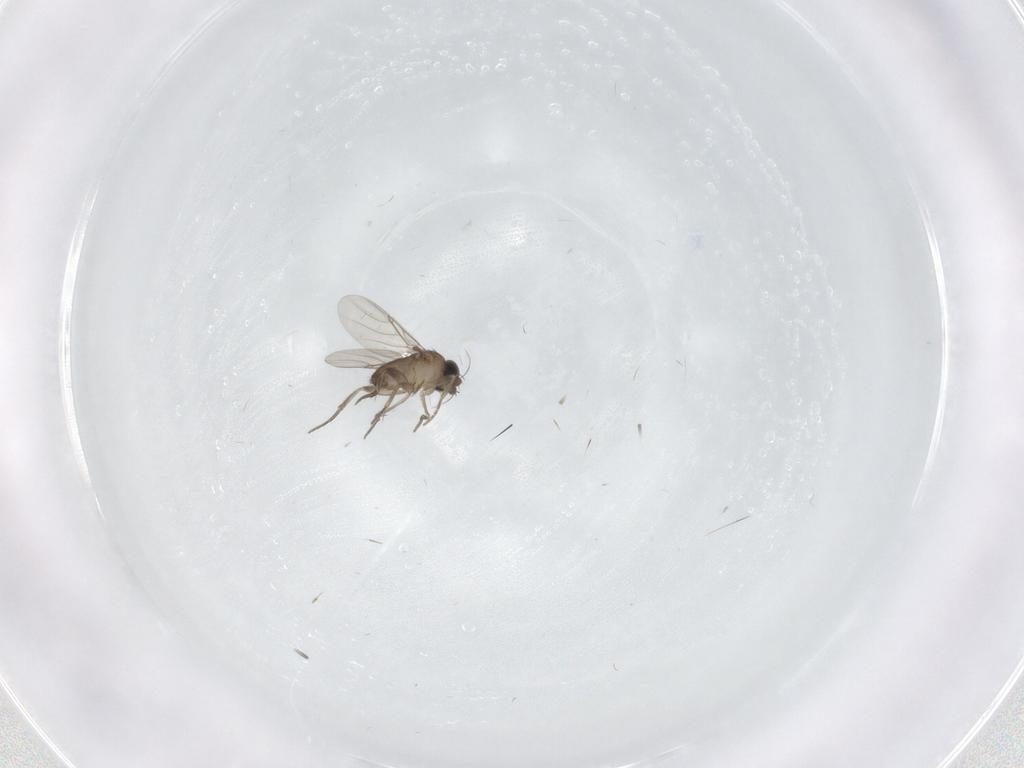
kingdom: Animalia
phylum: Arthropoda
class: Insecta
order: Diptera
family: Phoridae
